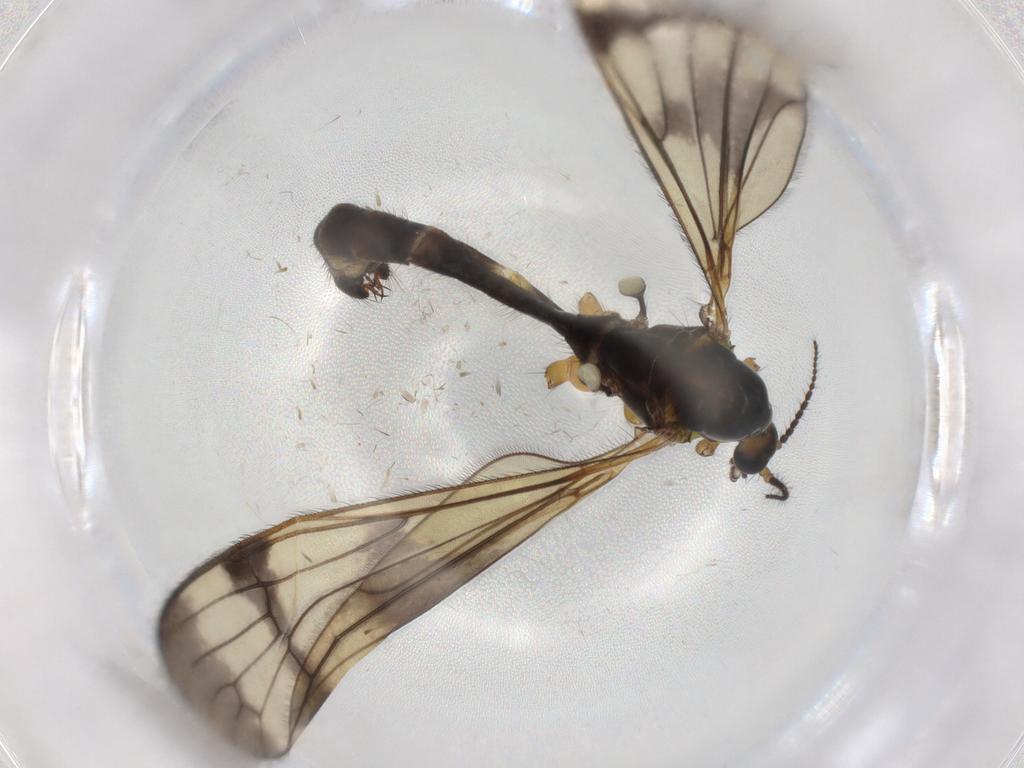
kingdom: Animalia
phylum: Arthropoda
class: Insecta
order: Diptera
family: Limoniidae
